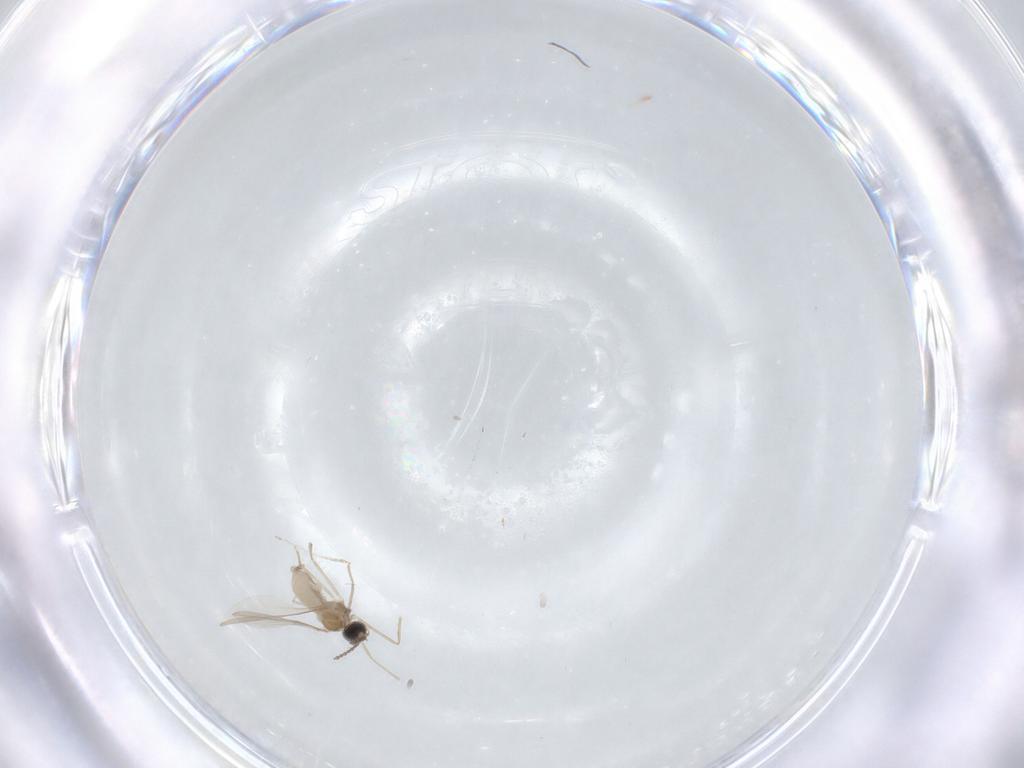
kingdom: Animalia
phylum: Arthropoda
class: Insecta
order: Diptera
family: Cecidomyiidae
